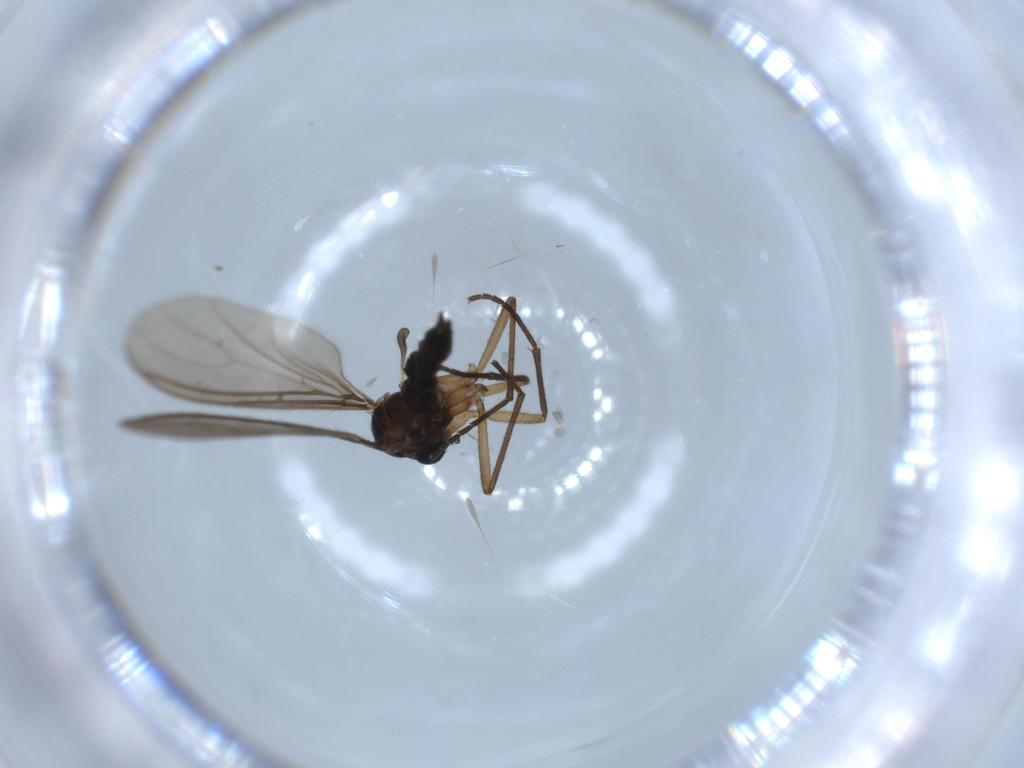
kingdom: Animalia
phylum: Arthropoda
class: Insecta
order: Diptera
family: Sciaridae
